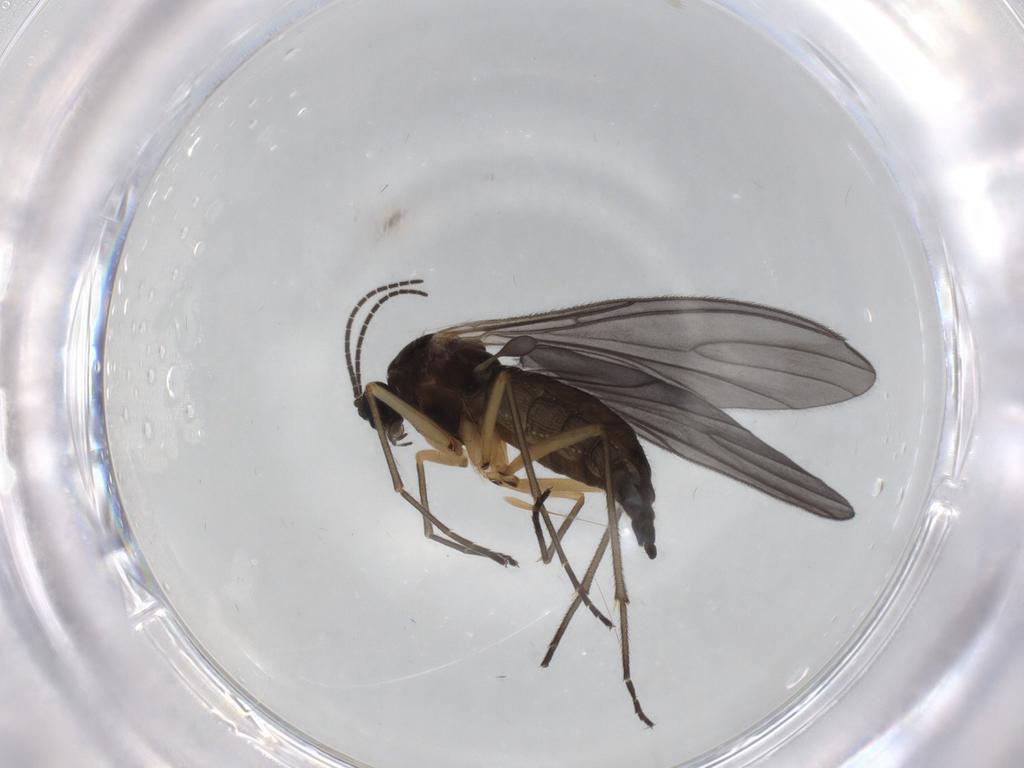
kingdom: Animalia
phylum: Arthropoda
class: Insecta
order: Diptera
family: Sciaridae
